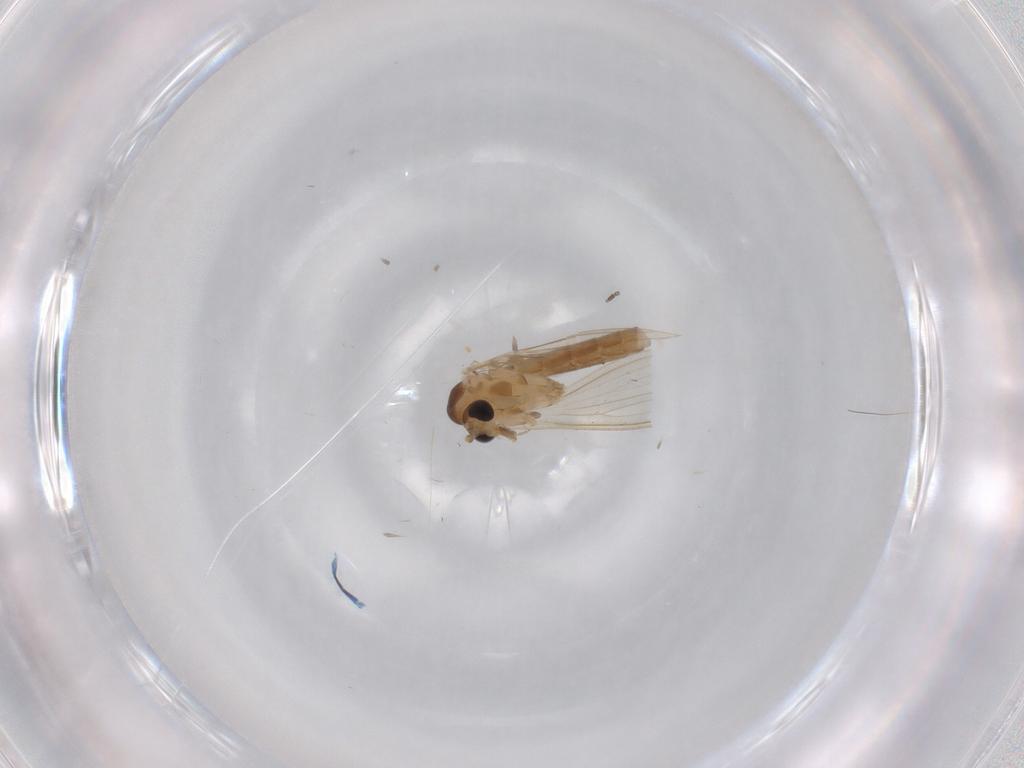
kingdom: Animalia
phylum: Arthropoda
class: Insecta
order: Diptera
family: Psychodidae
